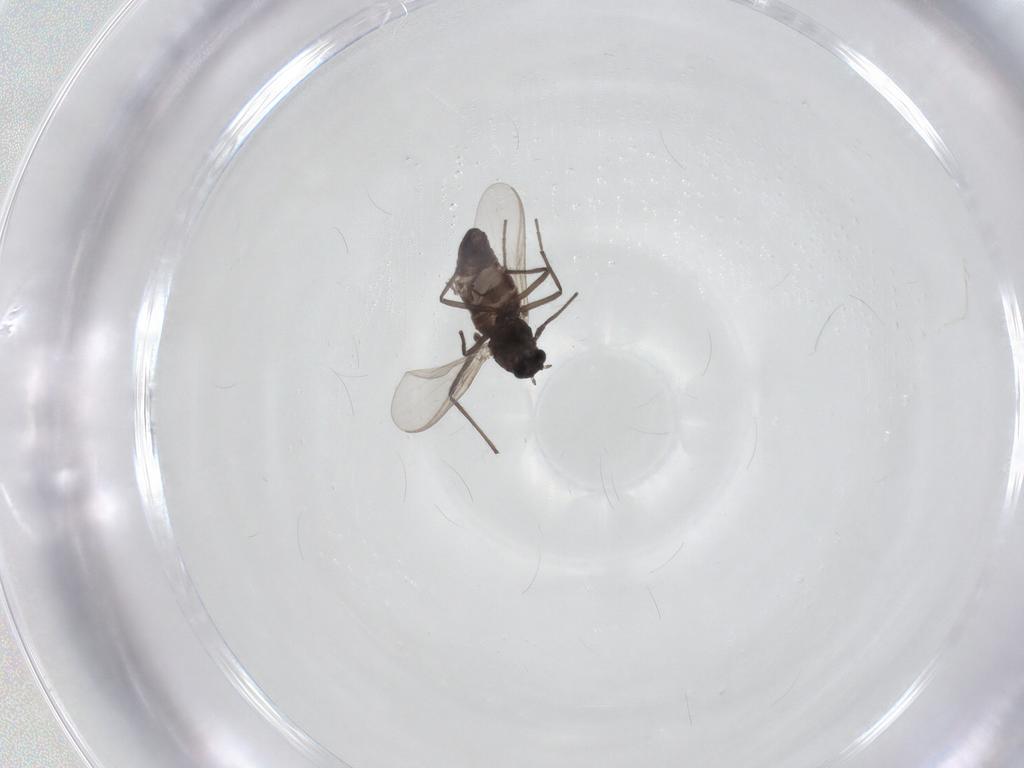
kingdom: Animalia
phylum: Arthropoda
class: Insecta
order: Diptera
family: Chironomidae
